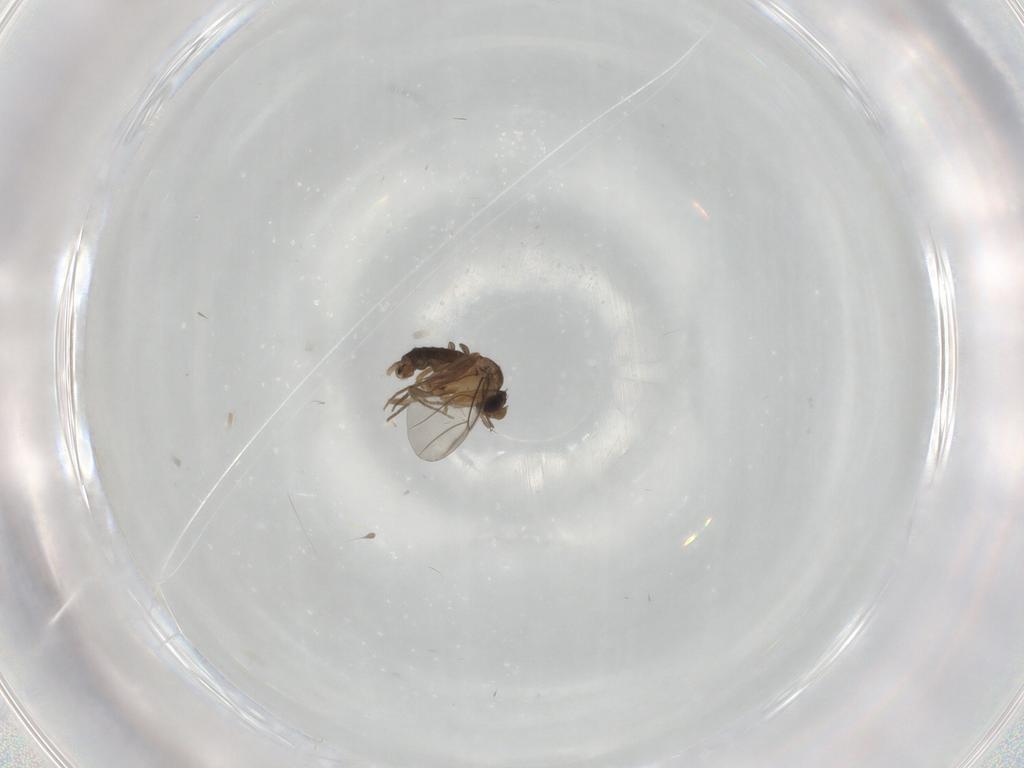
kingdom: Animalia
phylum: Arthropoda
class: Insecta
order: Diptera
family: Phoridae
